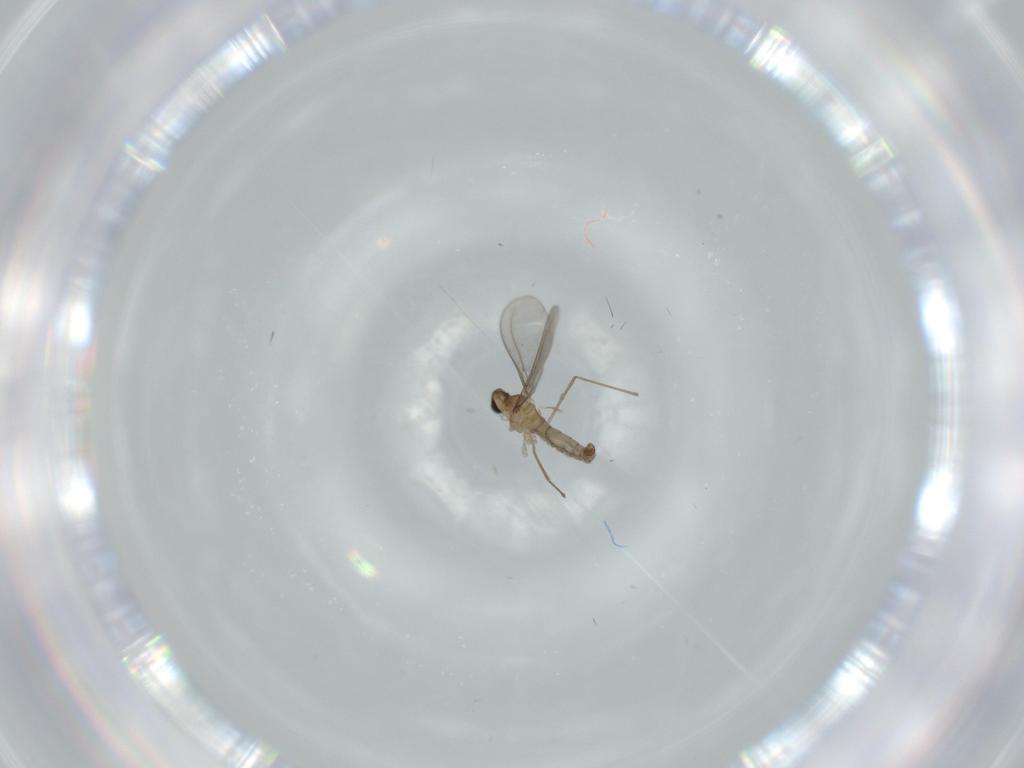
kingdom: Animalia
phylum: Arthropoda
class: Insecta
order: Diptera
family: Cecidomyiidae
